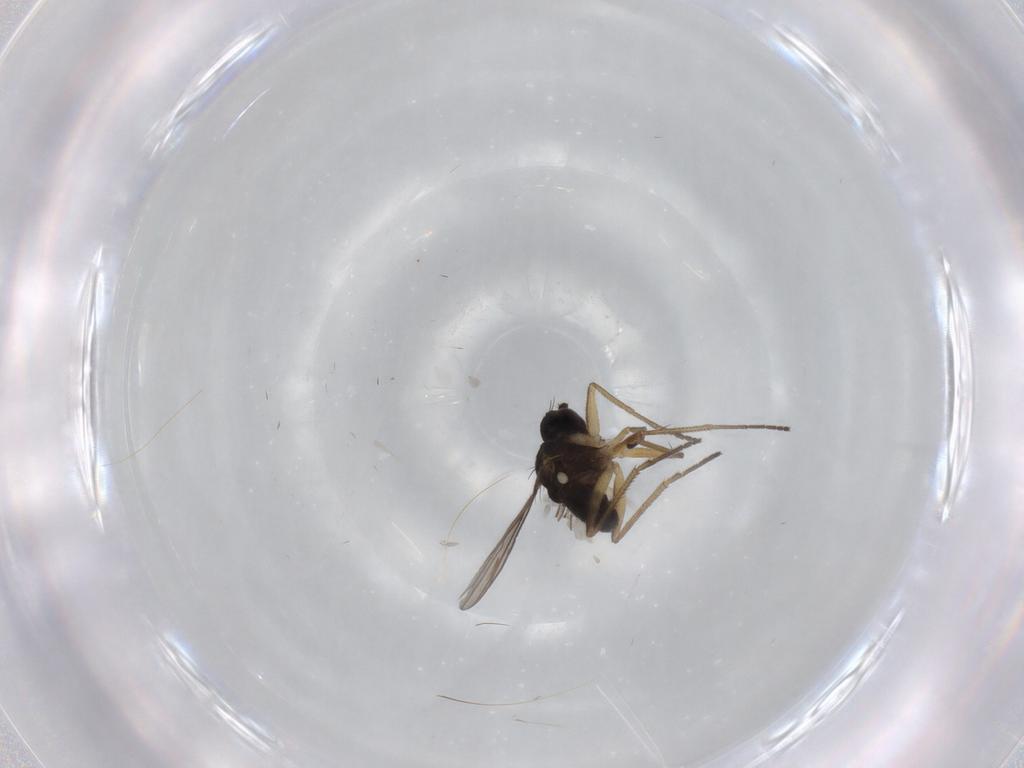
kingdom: Animalia
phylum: Arthropoda
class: Insecta
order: Diptera
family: Dolichopodidae
